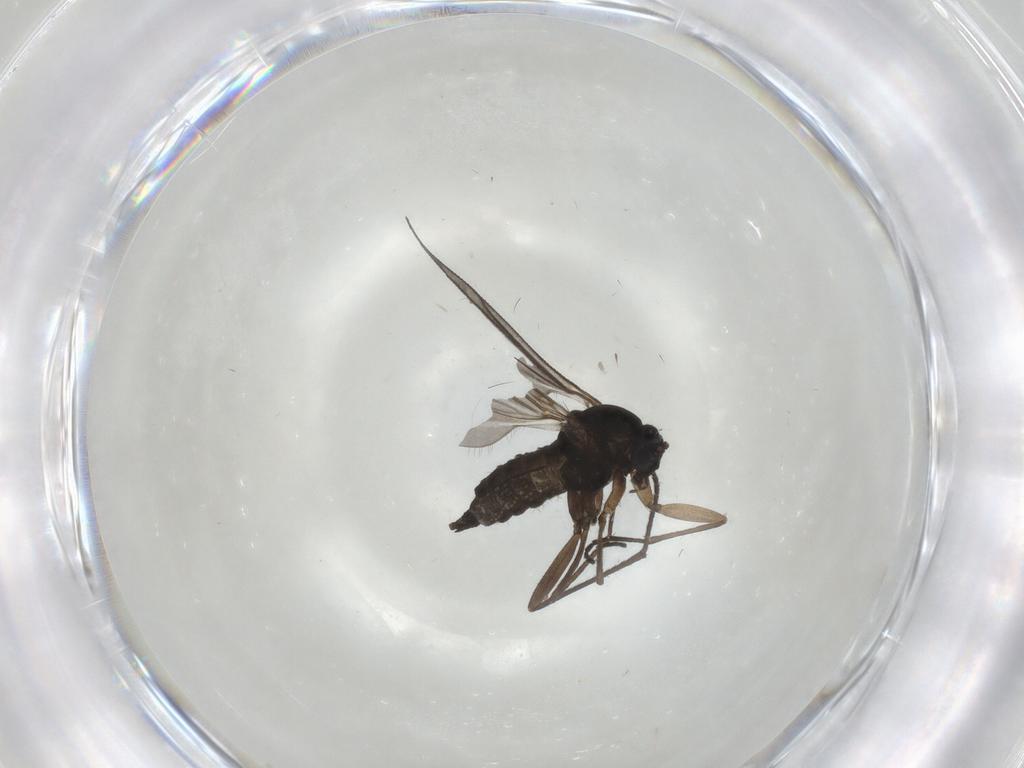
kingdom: Animalia
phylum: Arthropoda
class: Insecta
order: Diptera
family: Sciaridae
